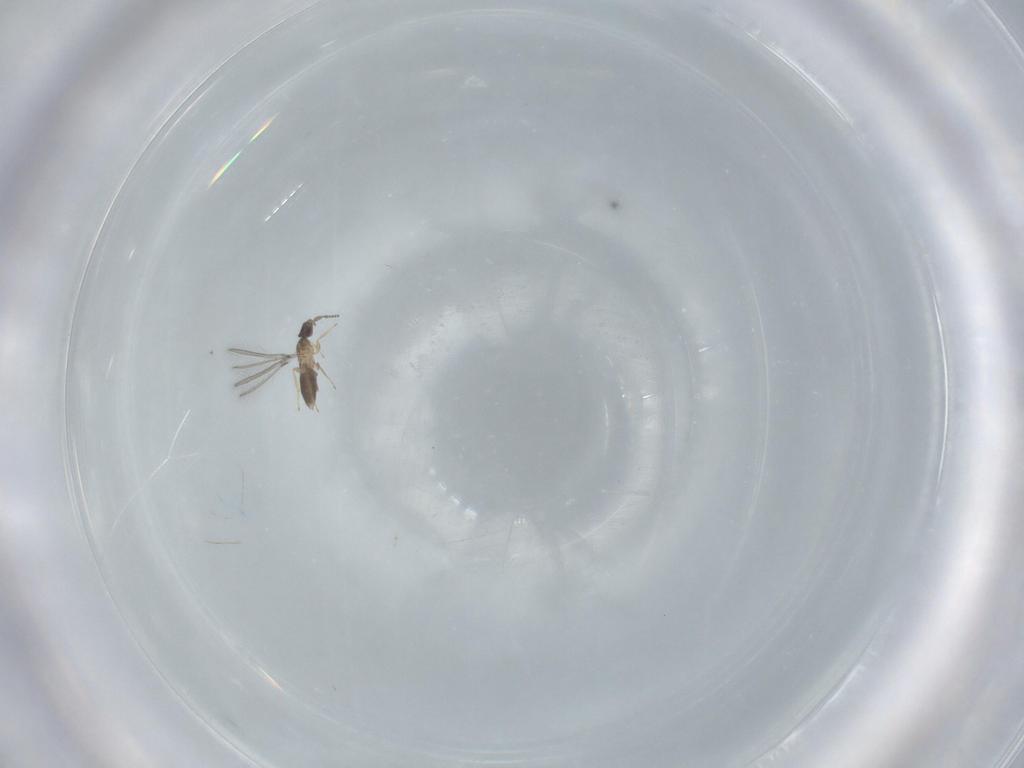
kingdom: Animalia
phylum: Arthropoda
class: Insecta
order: Hymenoptera
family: Mymaridae
